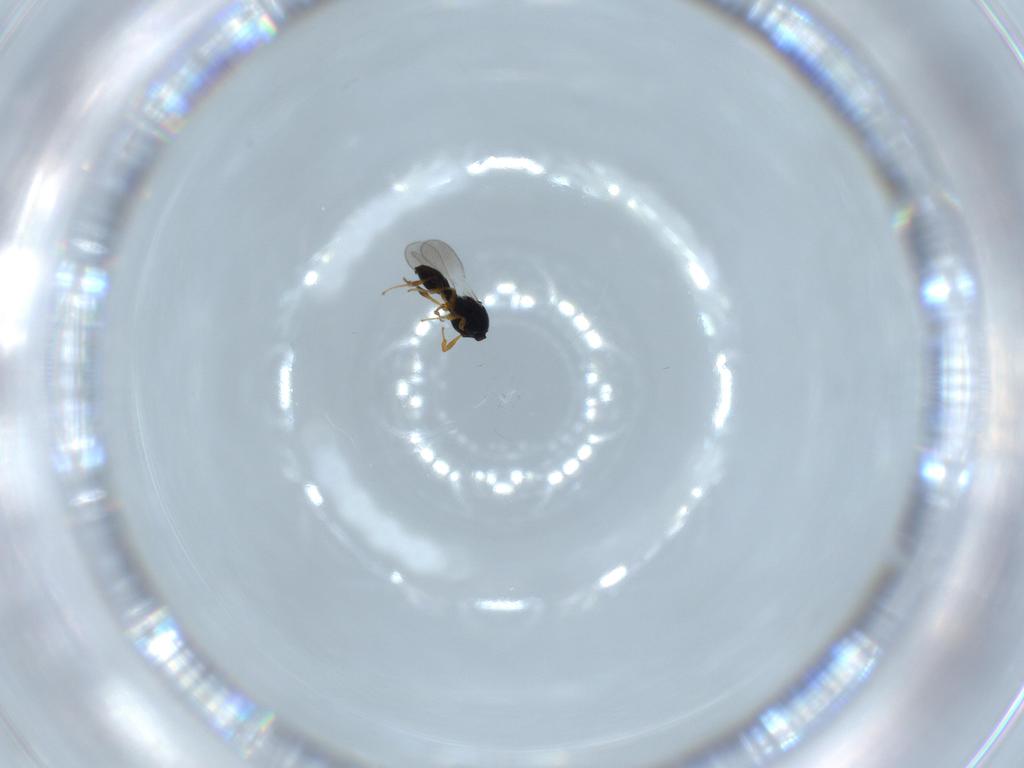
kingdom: Animalia
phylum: Arthropoda
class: Insecta
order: Hymenoptera
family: Platygastridae
